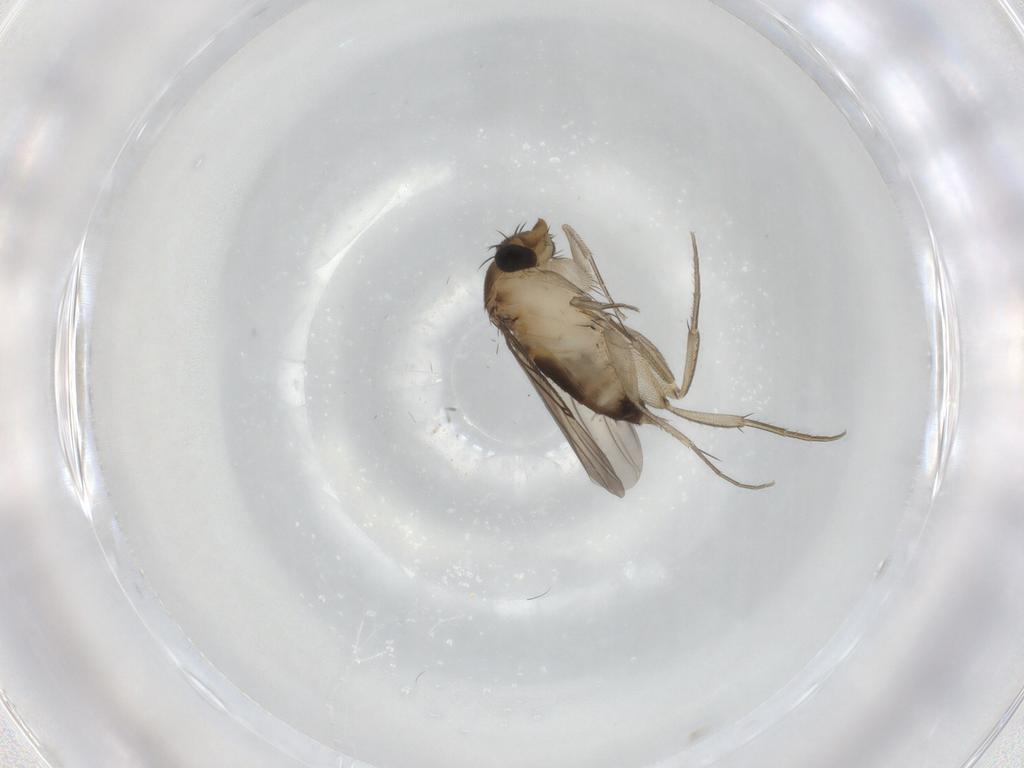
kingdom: Animalia
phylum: Arthropoda
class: Insecta
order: Diptera
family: Phoridae
